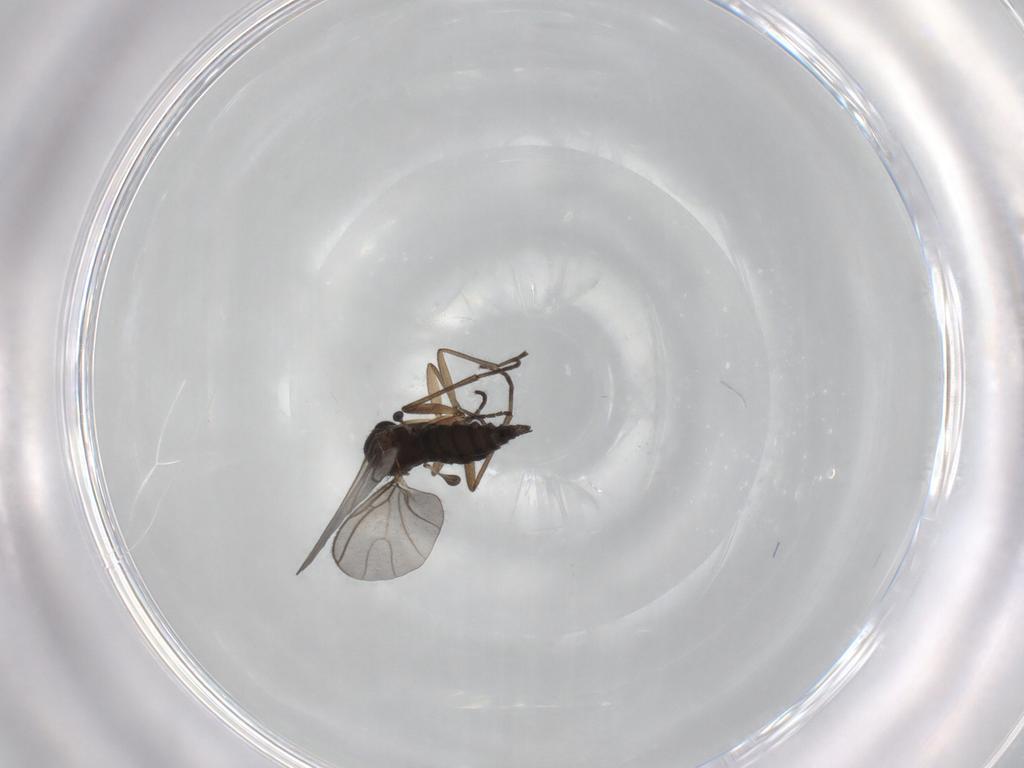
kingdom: Animalia
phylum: Arthropoda
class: Insecta
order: Diptera
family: Sciaridae
